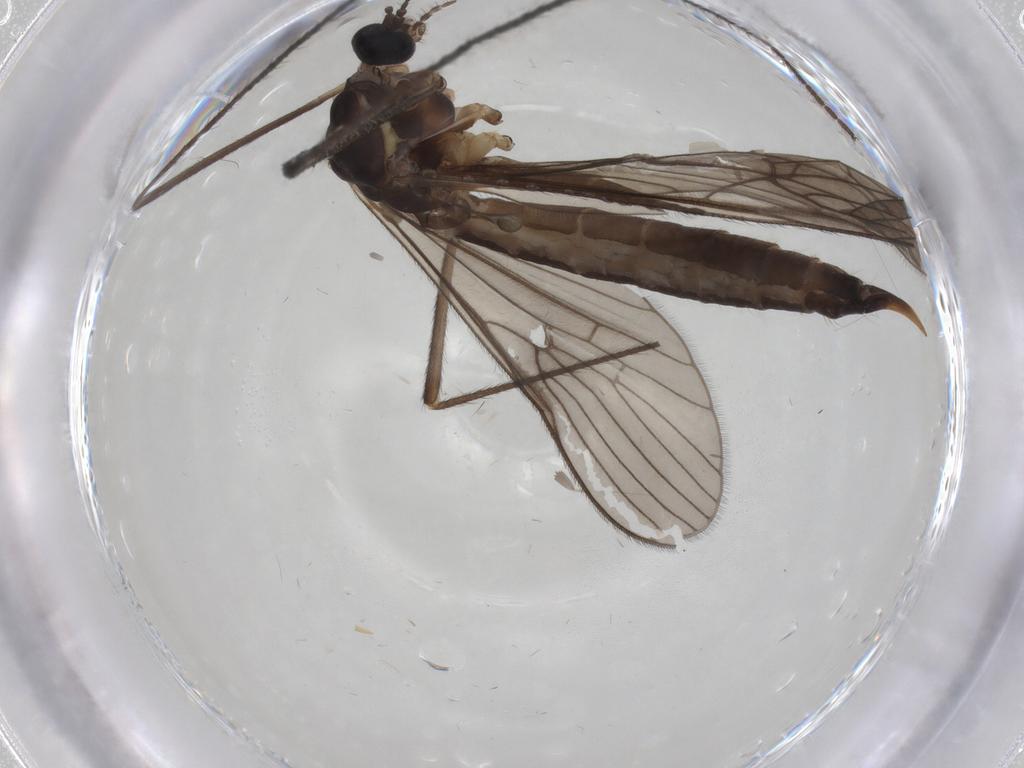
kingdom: Animalia
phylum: Arthropoda
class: Insecta
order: Diptera
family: Limoniidae
